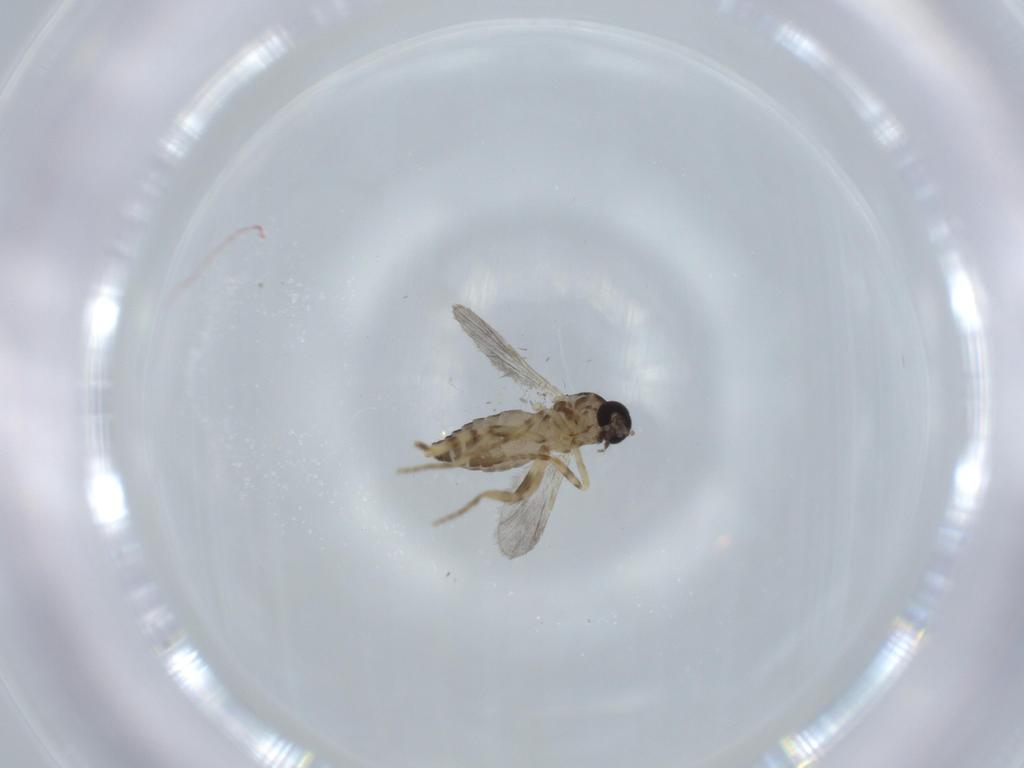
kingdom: Animalia
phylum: Arthropoda
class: Insecta
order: Diptera
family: Ceratopogonidae
